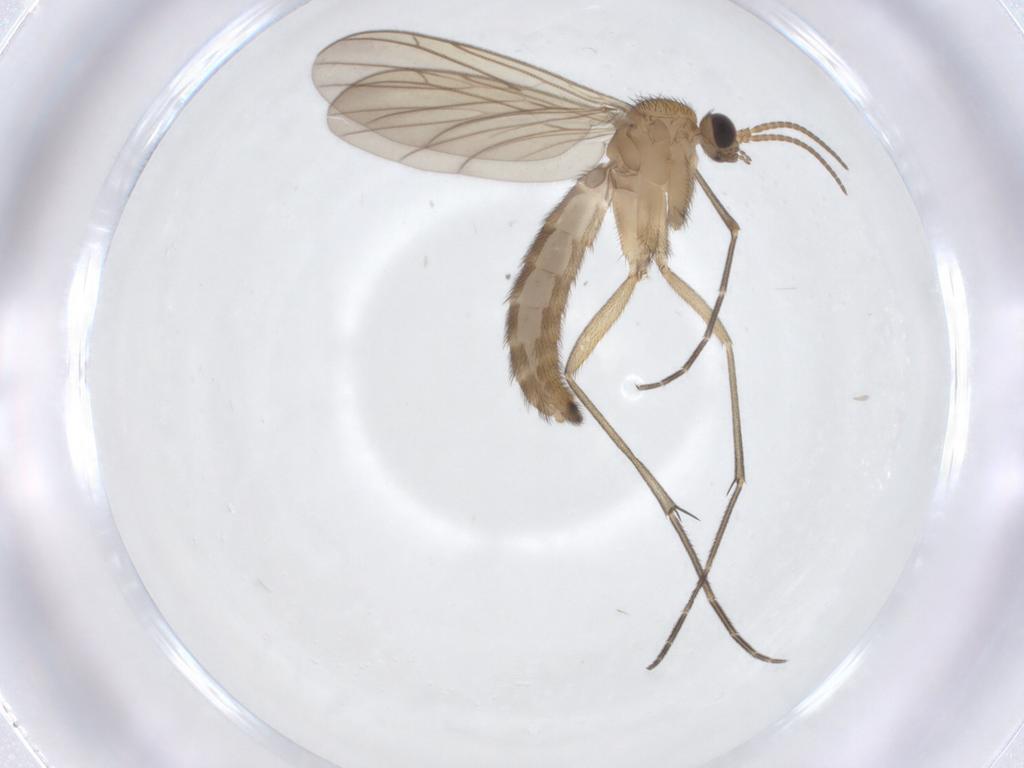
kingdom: Animalia
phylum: Arthropoda
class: Insecta
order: Diptera
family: Keroplatidae
